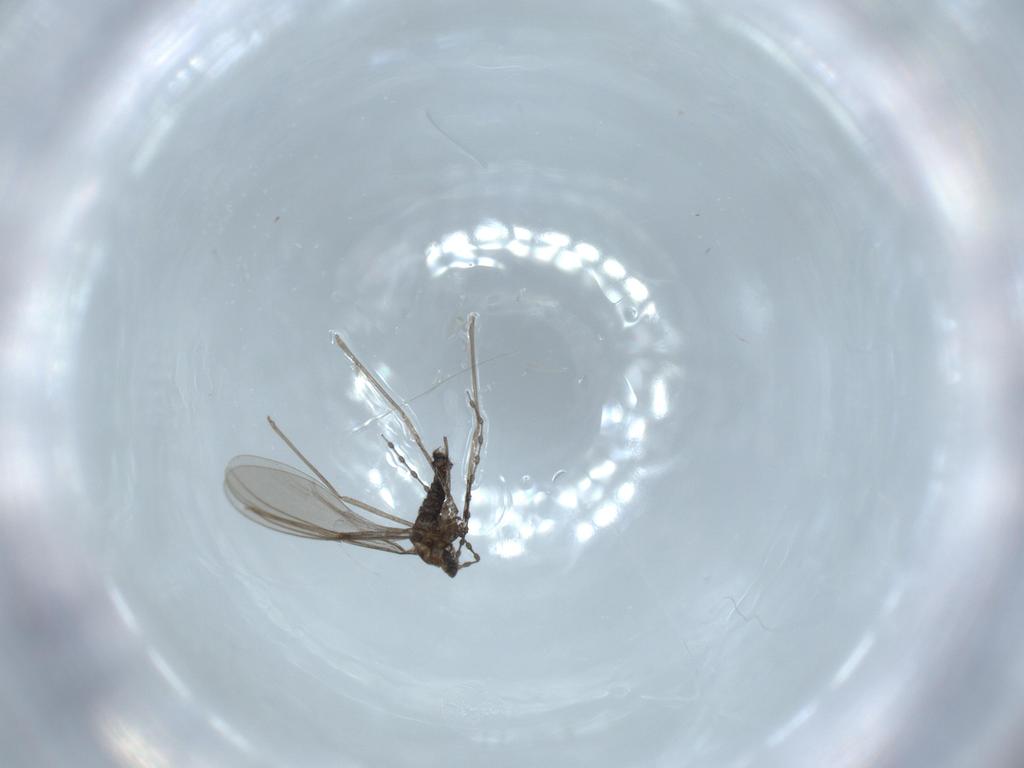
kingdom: Animalia
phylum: Arthropoda
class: Insecta
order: Diptera
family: Cecidomyiidae
